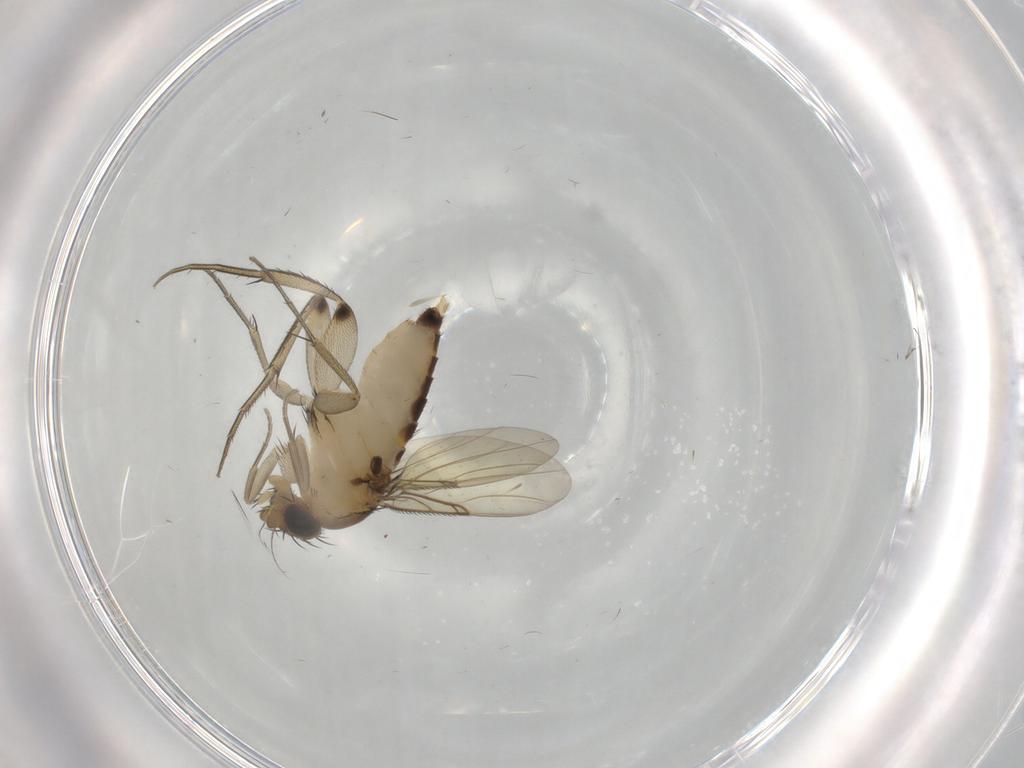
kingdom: Animalia
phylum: Arthropoda
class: Insecta
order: Diptera
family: Phoridae
